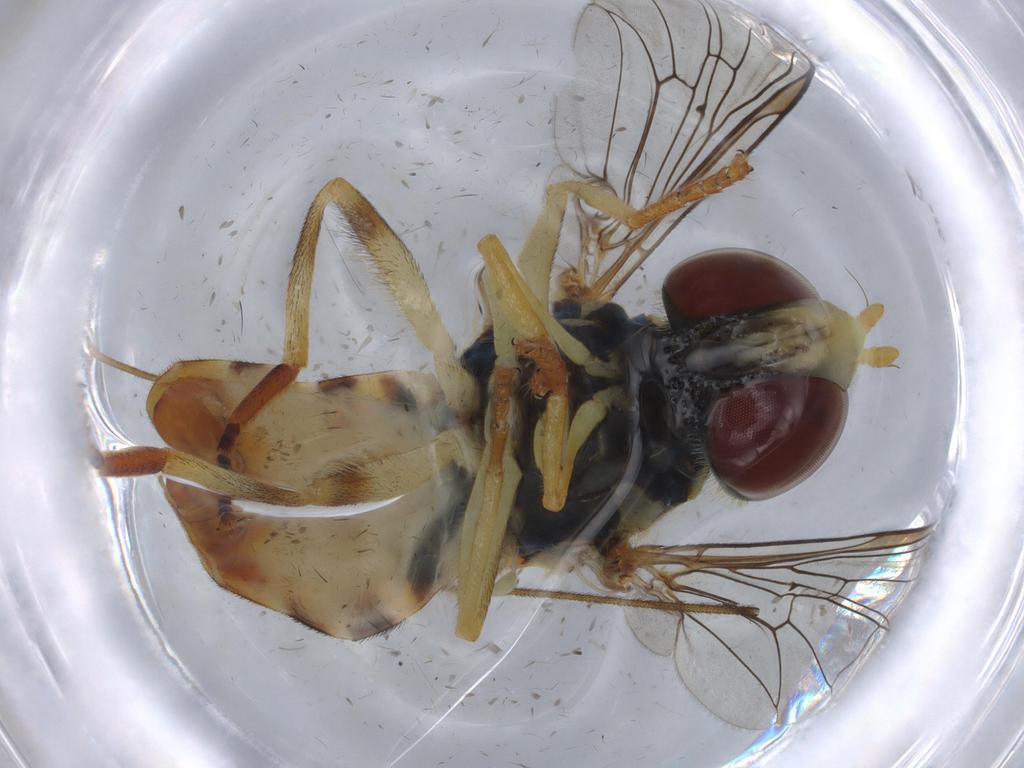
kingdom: Animalia
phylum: Arthropoda
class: Insecta
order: Diptera
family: Syrphidae
